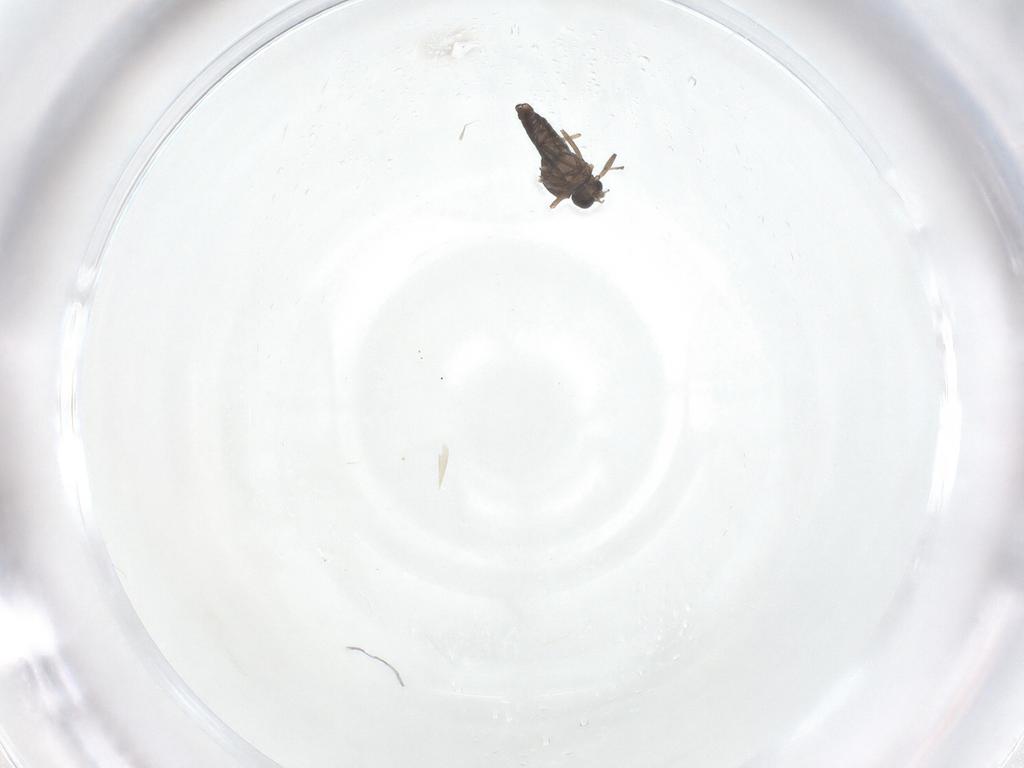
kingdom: Animalia
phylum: Arthropoda
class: Insecta
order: Diptera
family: Ceratopogonidae
